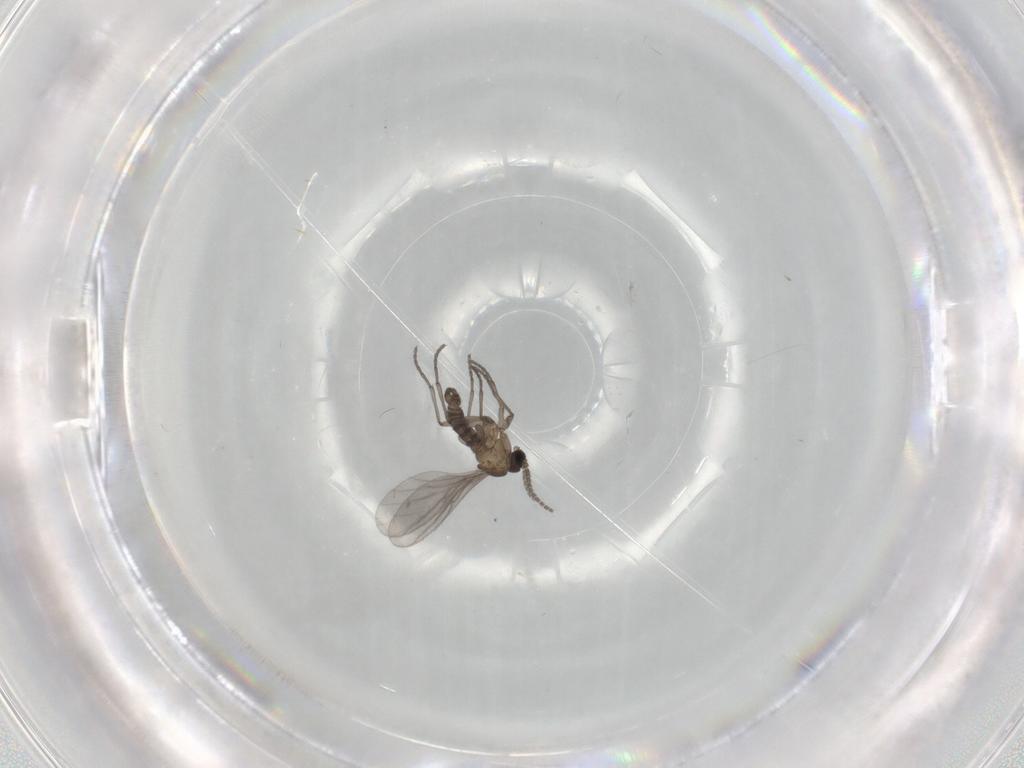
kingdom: Animalia
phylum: Arthropoda
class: Insecta
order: Diptera
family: Sciaridae
